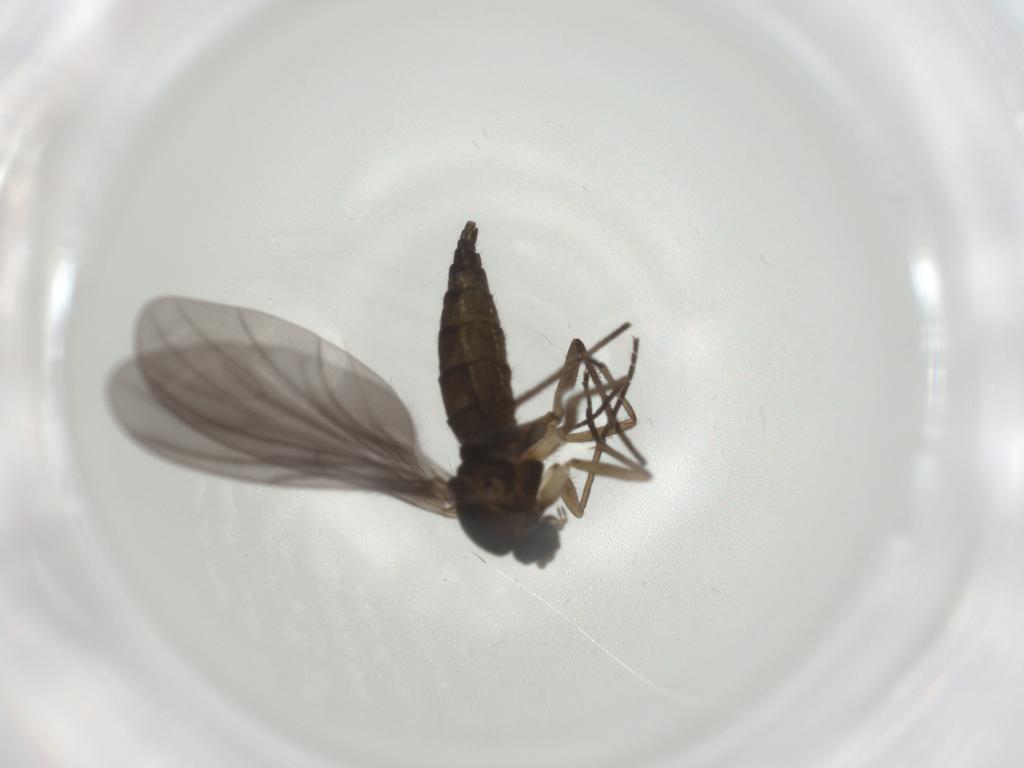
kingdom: Animalia
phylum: Arthropoda
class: Insecta
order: Diptera
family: Sciaridae
